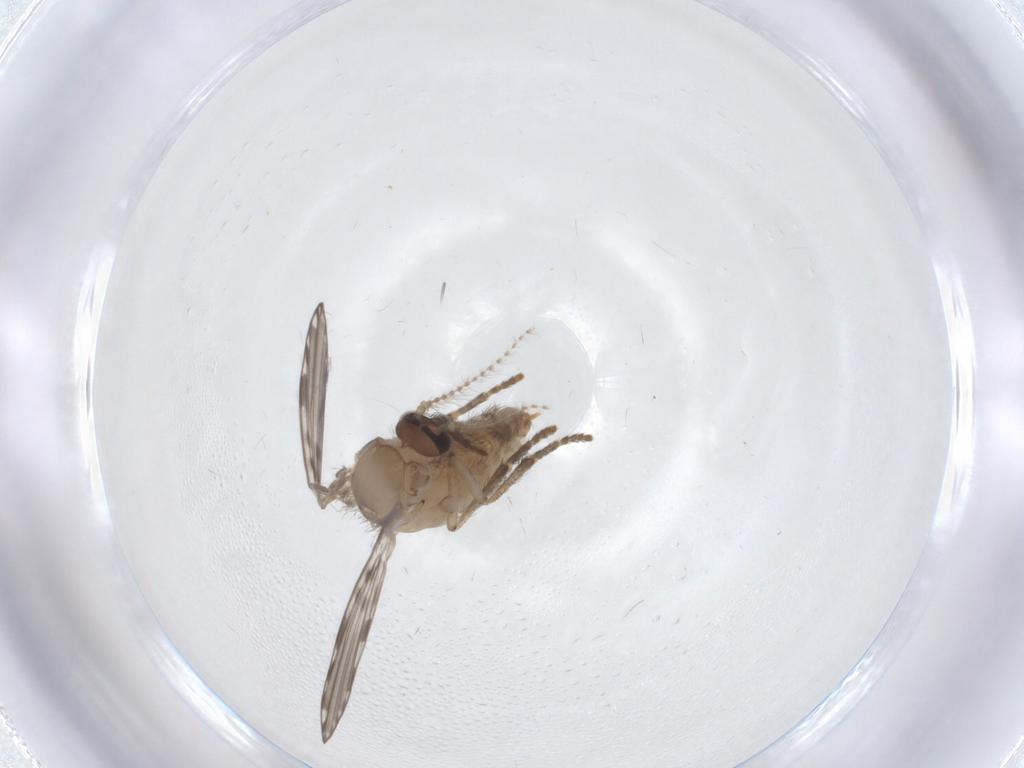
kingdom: Animalia
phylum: Arthropoda
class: Insecta
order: Diptera
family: Psychodidae
